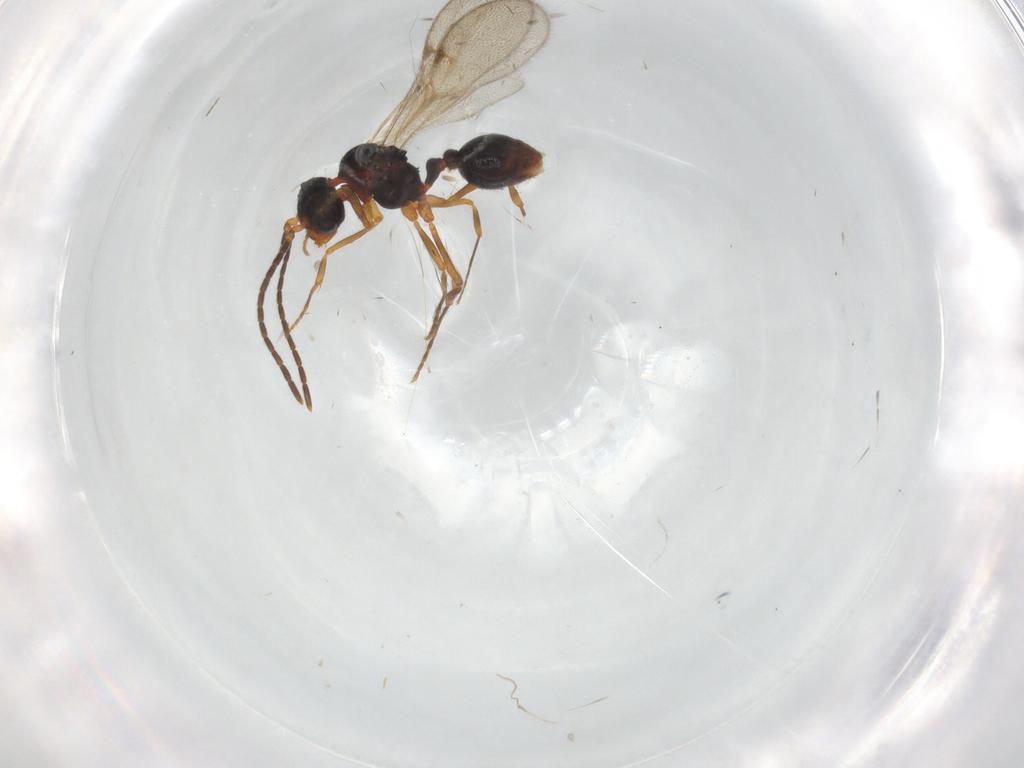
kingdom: Animalia
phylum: Arthropoda
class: Insecta
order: Hymenoptera
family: Formicidae
